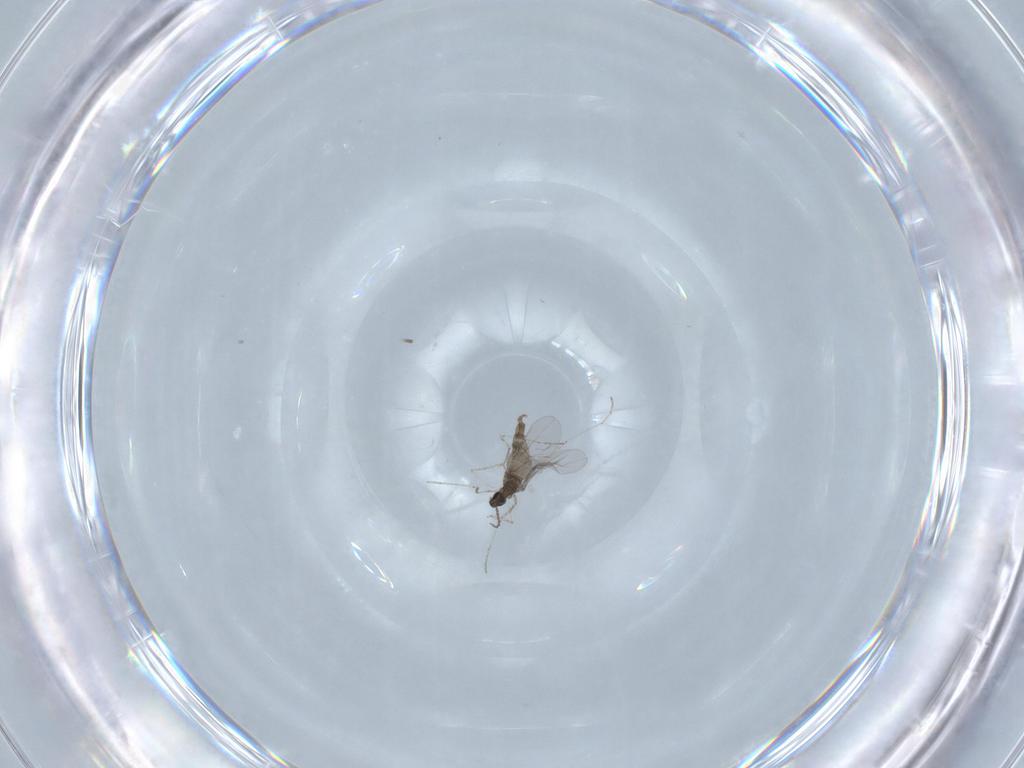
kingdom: Animalia
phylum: Arthropoda
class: Insecta
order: Diptera
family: Cecidomyiidae
